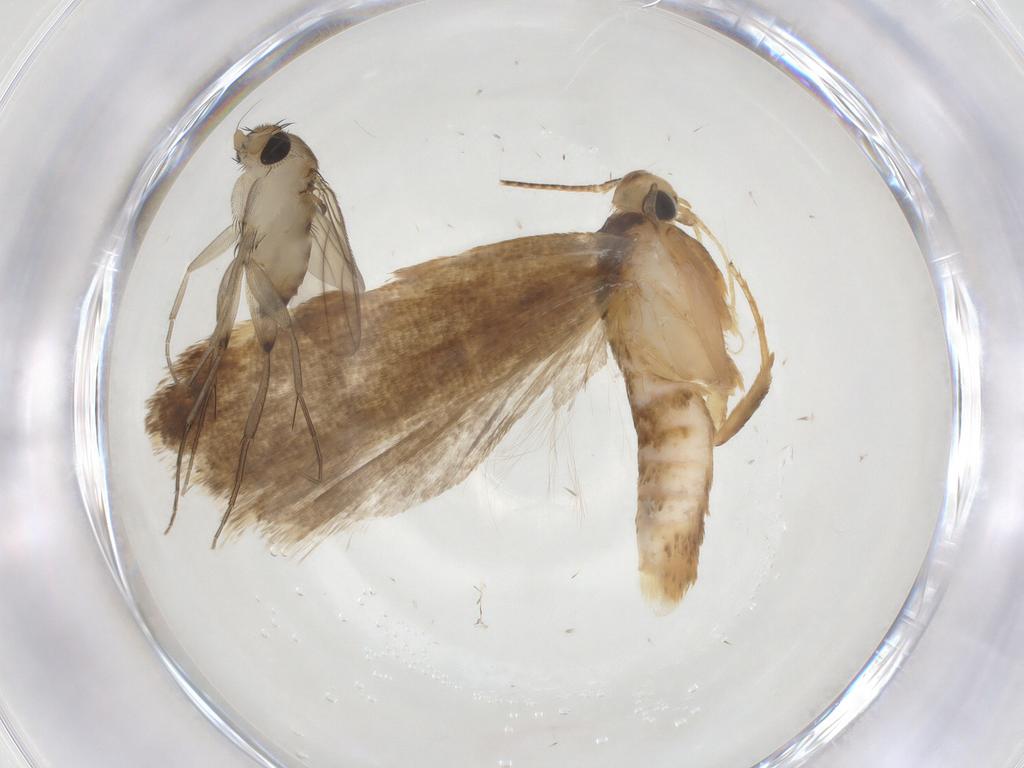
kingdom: Animalia
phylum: Arthropoda
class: Insecta
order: Lepidoptera
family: Gelechiidae
